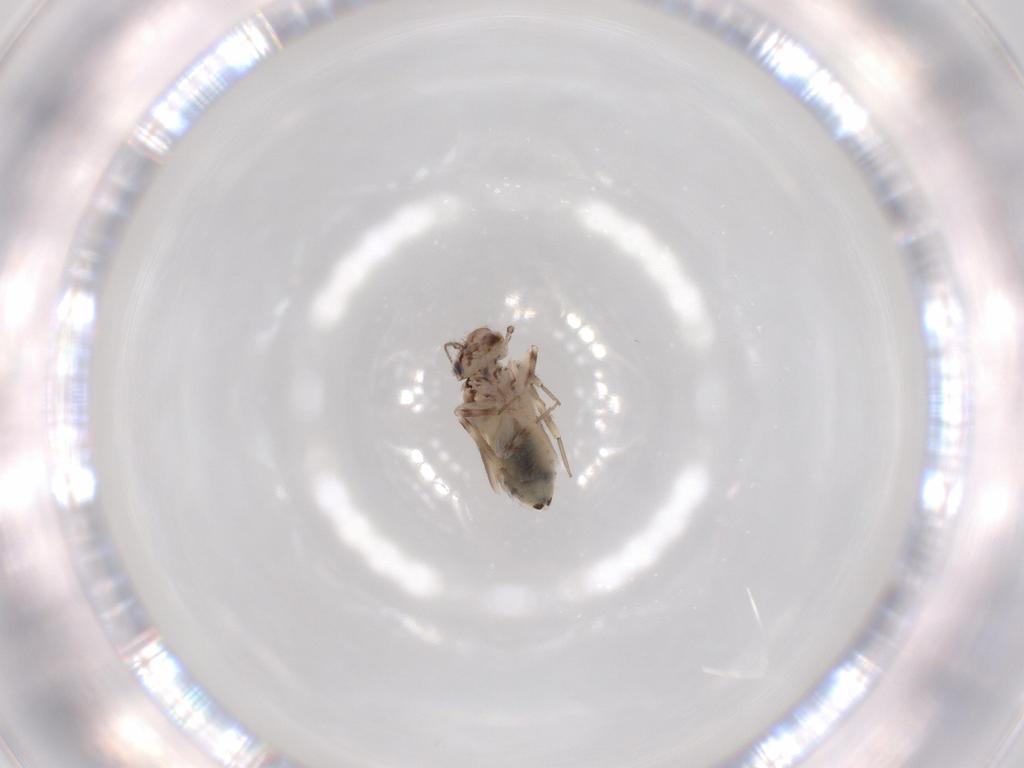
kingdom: Animalia
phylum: Arthropoda
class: Insecta
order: Psocodea
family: Lepidopsocidae
